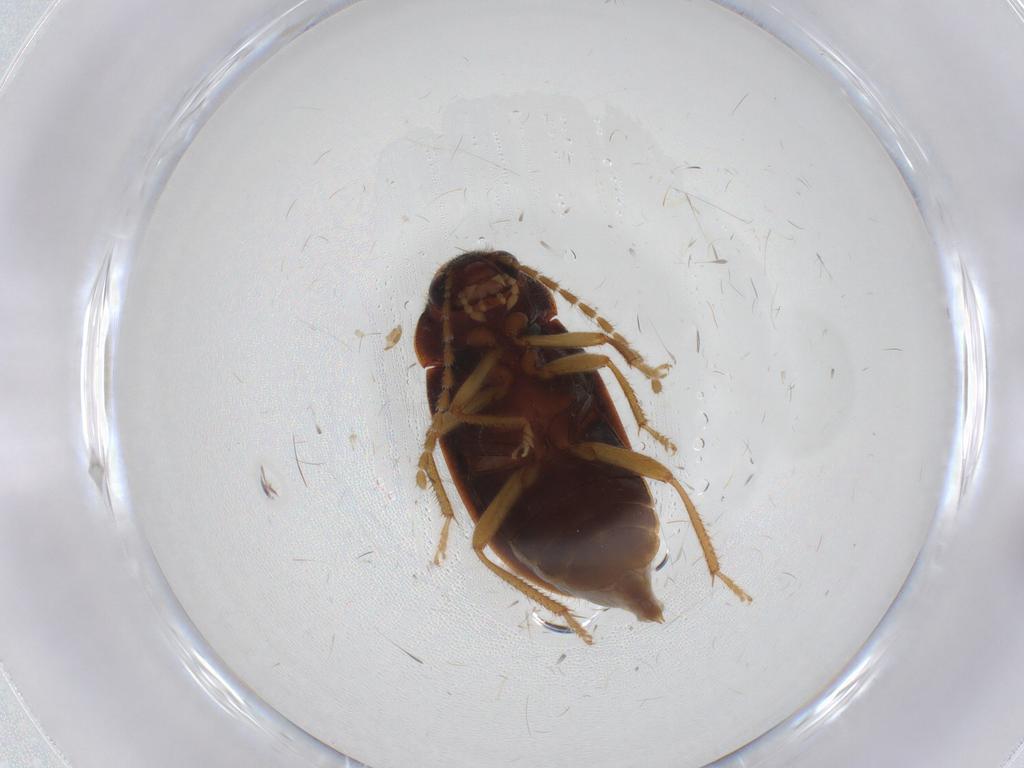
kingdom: Animalia
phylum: Arthropoda
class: Insecta
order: Coleoptera
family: Ptilodactylidae
